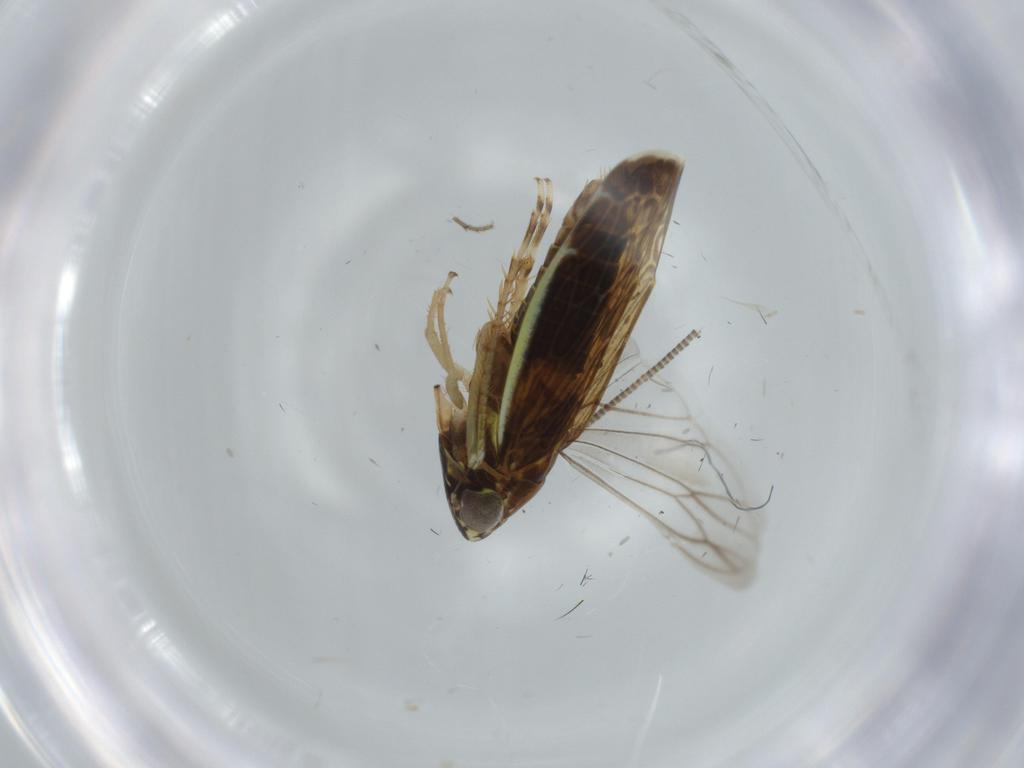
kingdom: Animalia
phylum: Arthropoda
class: Insecta
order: Hemiptera
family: Cicadellidae
